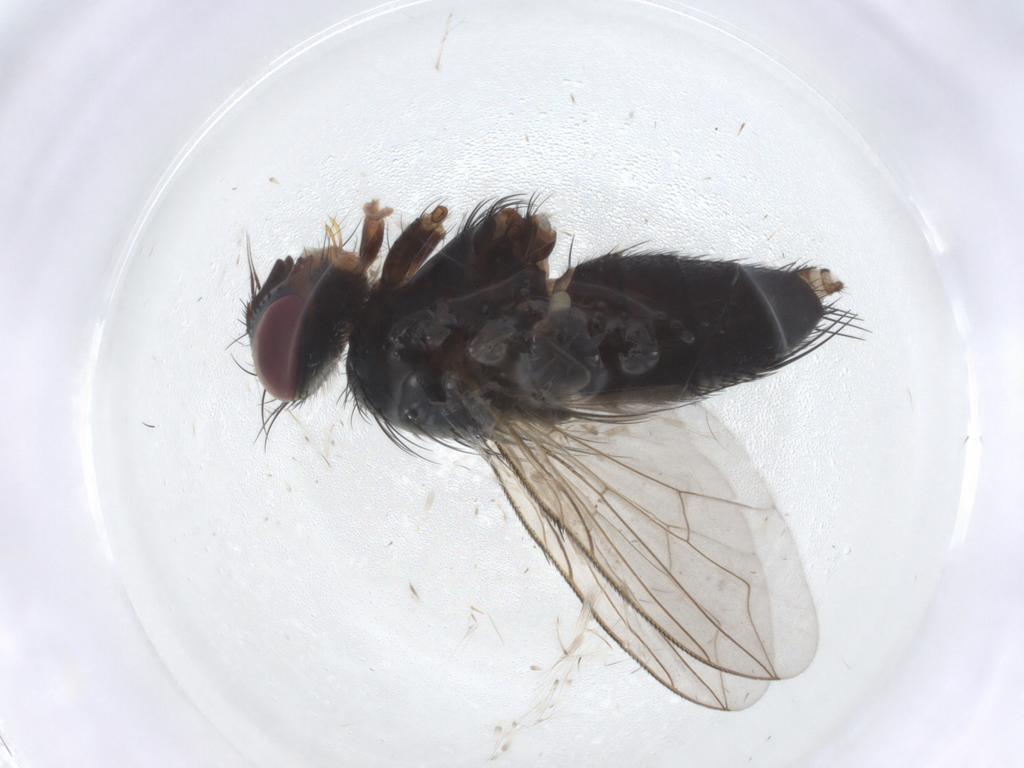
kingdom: Animalia
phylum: Arthropoda
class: Insecta
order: Diptera
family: Tachinidae
